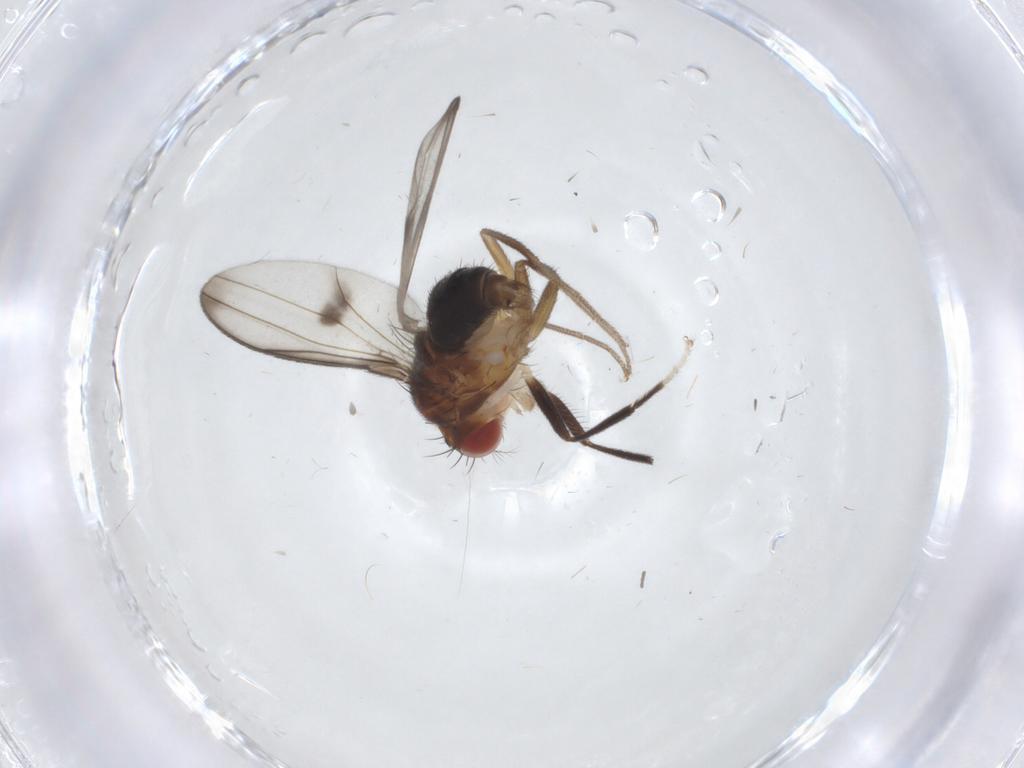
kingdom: Animalia
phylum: Arthropoda
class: Insecta
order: Diptera
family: Drosophilidae
